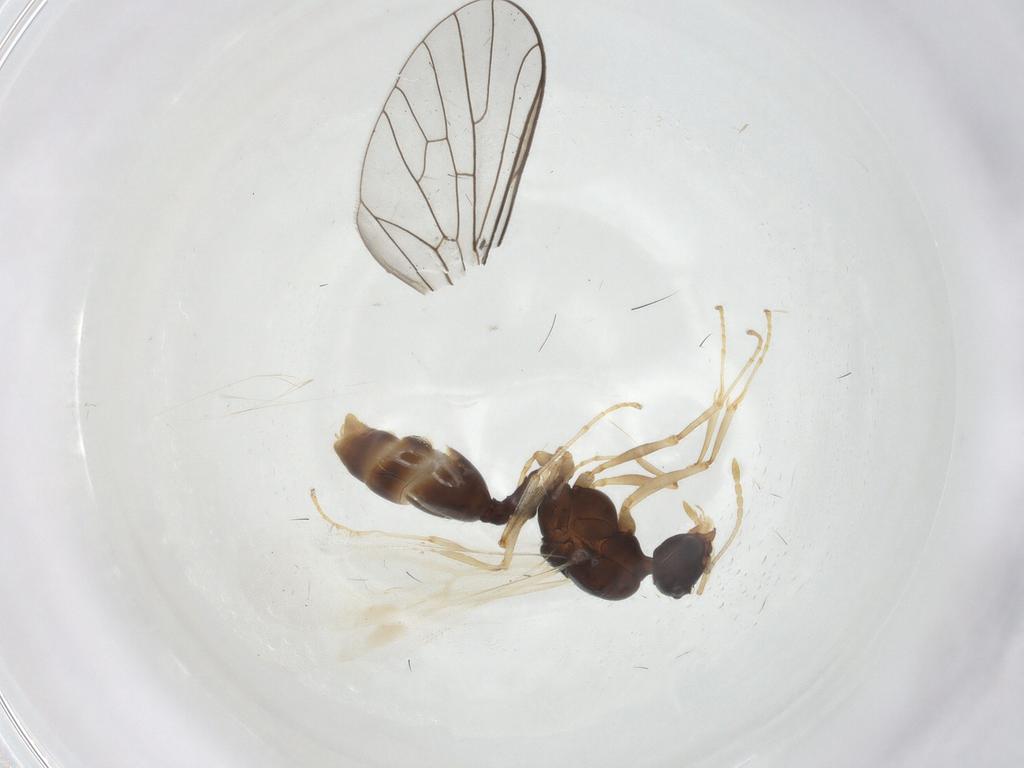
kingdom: Animalia
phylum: Arthropoda
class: Insecta
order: Hymenoptera
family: Formicidae
